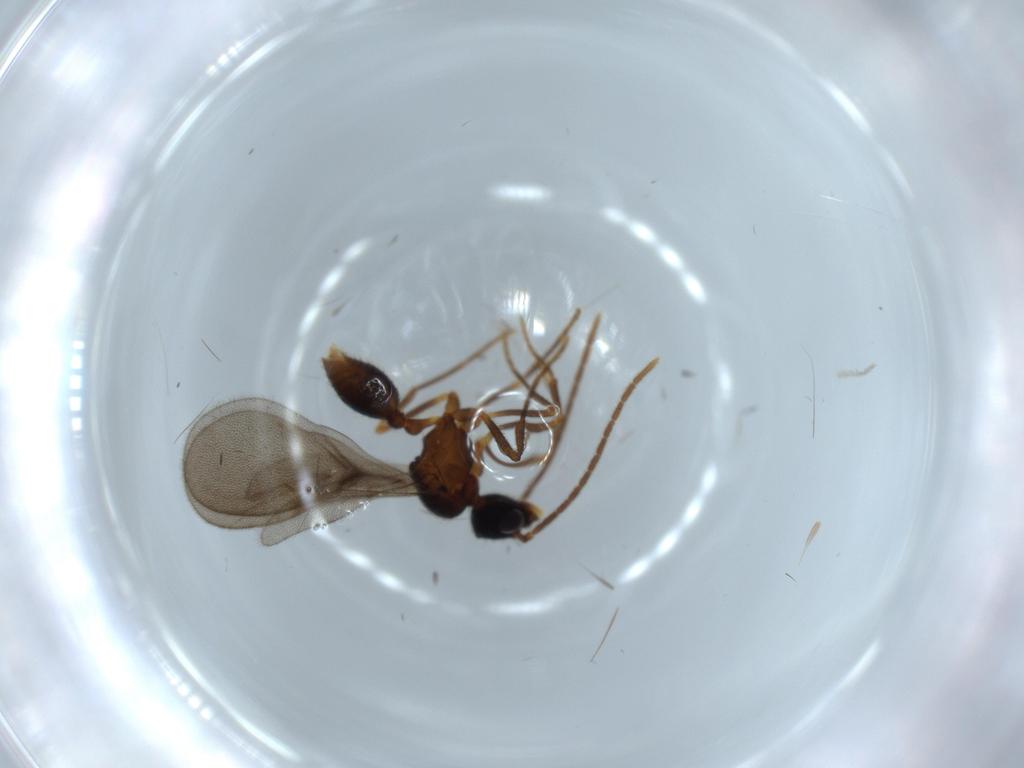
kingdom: Animalia
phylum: Arthropoda
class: Insecta
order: Hymenoptera
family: Formicidae
